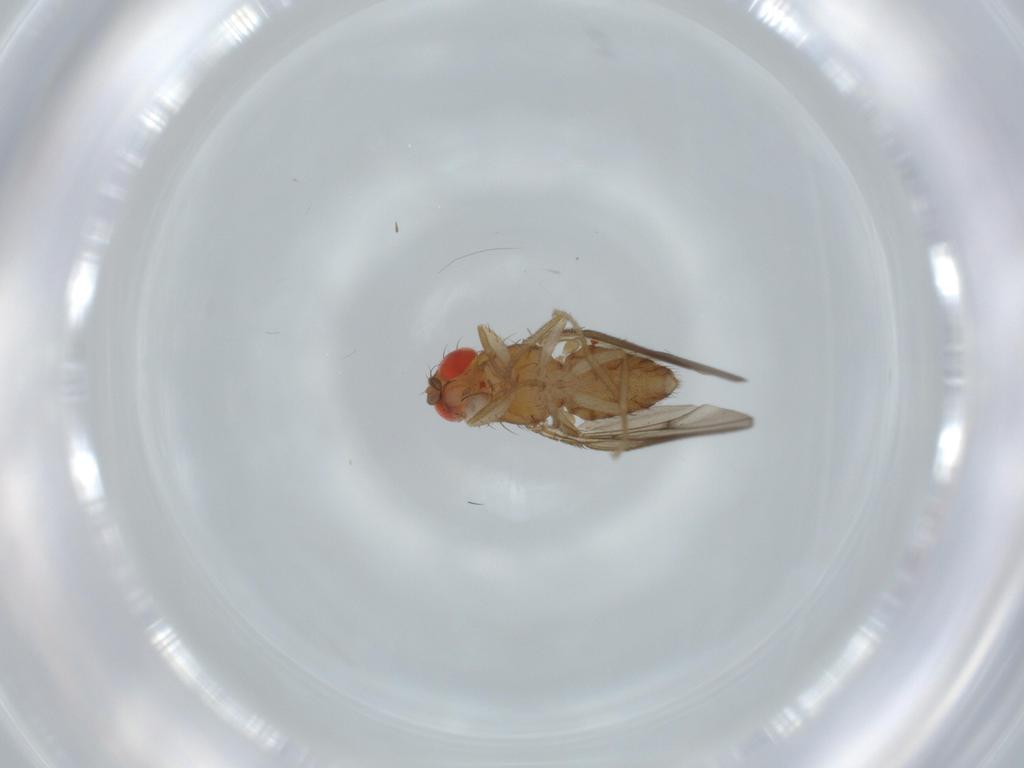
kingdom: Animalia
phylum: Arthropoda
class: Insecta
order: Diptera
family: Drosophilidae
